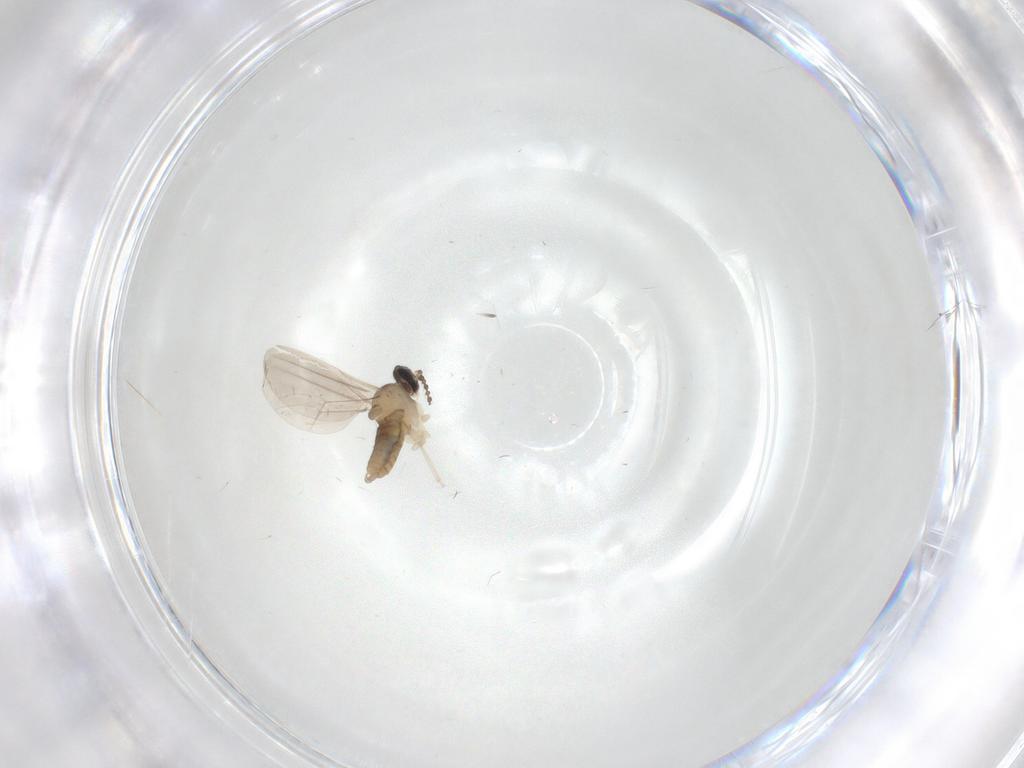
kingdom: Animalia
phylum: Arthropoda
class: Insecta
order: Diptera
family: Cecidomyiidae
